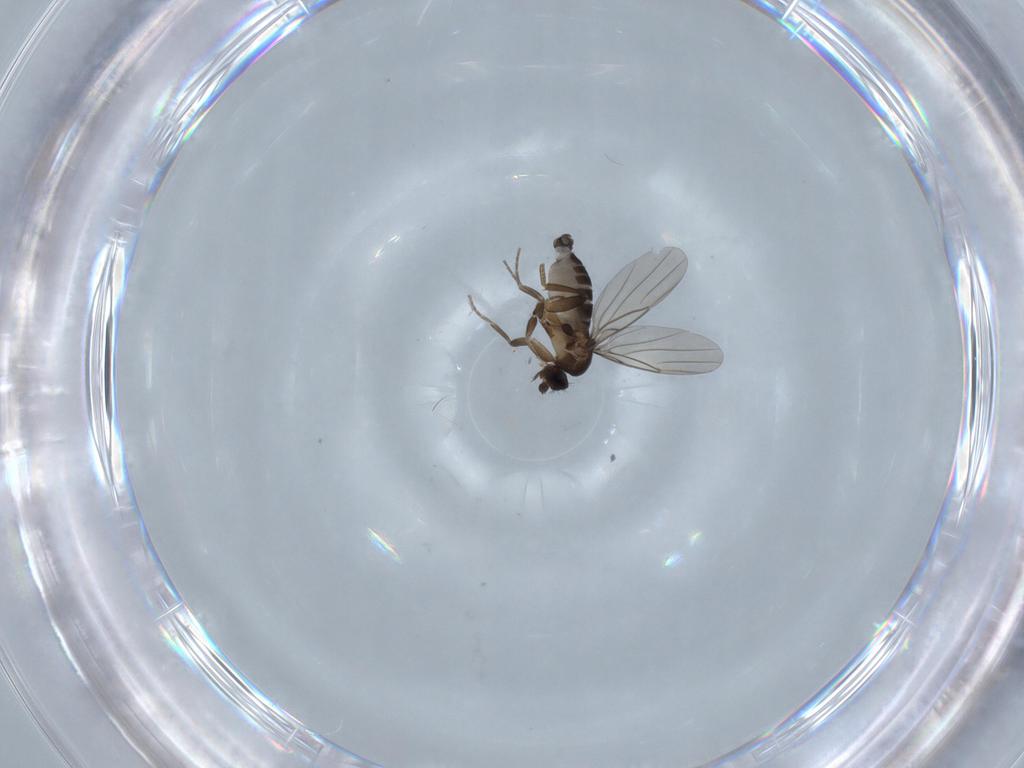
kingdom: Animalia
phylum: Arthropoda
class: Insecta
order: Diptera
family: Phoridae
